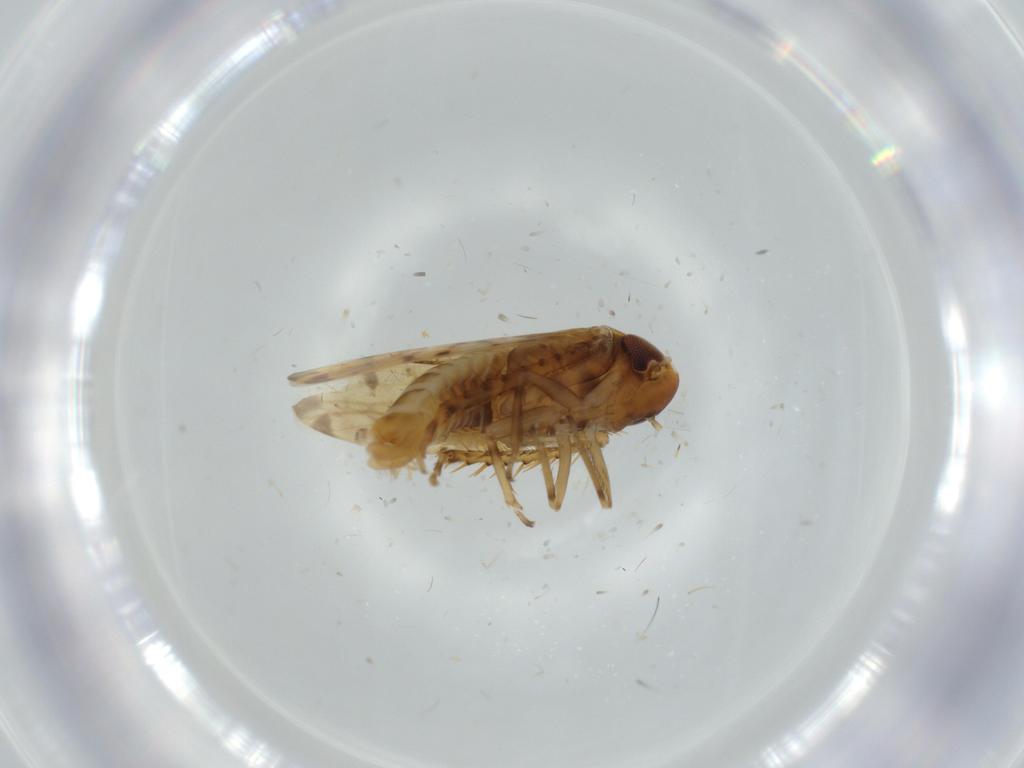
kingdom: Animalia
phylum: Arthropoda
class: Insecta
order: Hemiptera
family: Cicadellidae
